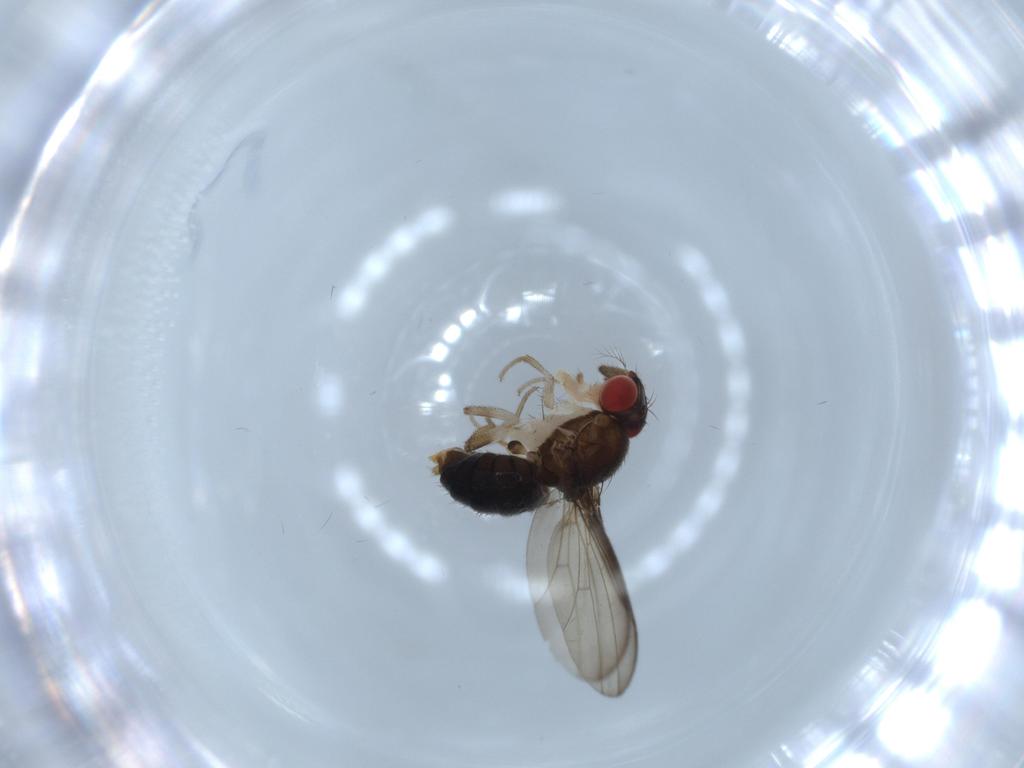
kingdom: Animalia
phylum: Arthropoda
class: Insecta
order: Diptera
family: Drosophilidae
